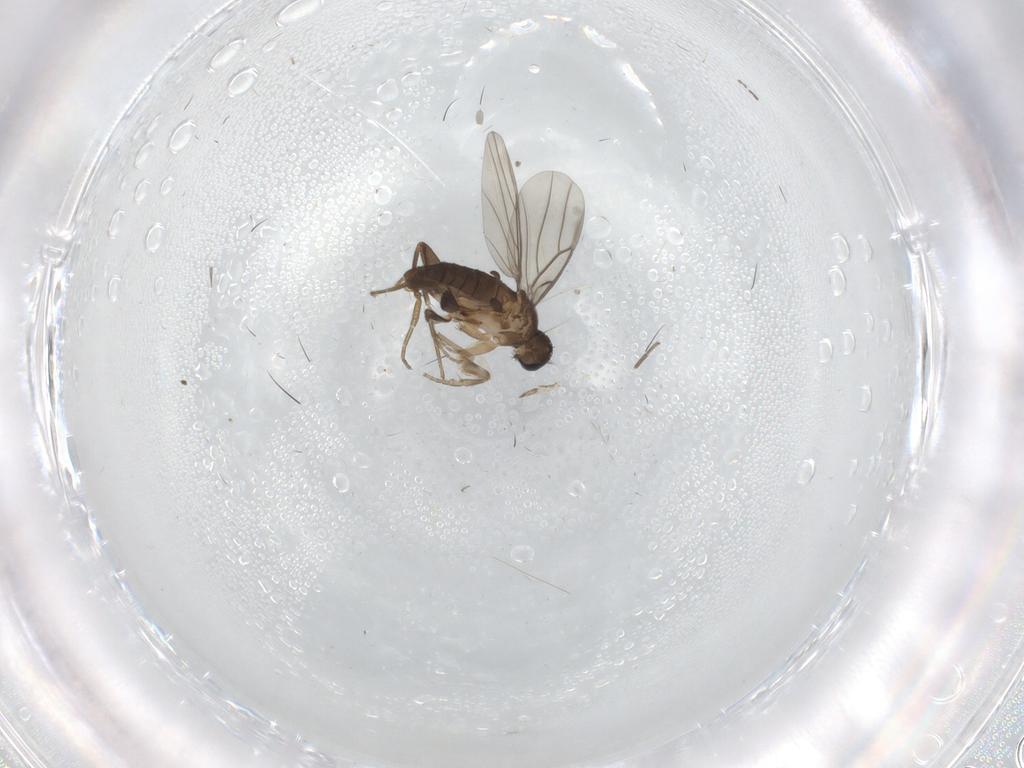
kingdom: Animalia
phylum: Arthropoda
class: Insecta
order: Diptera
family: Phoridae
